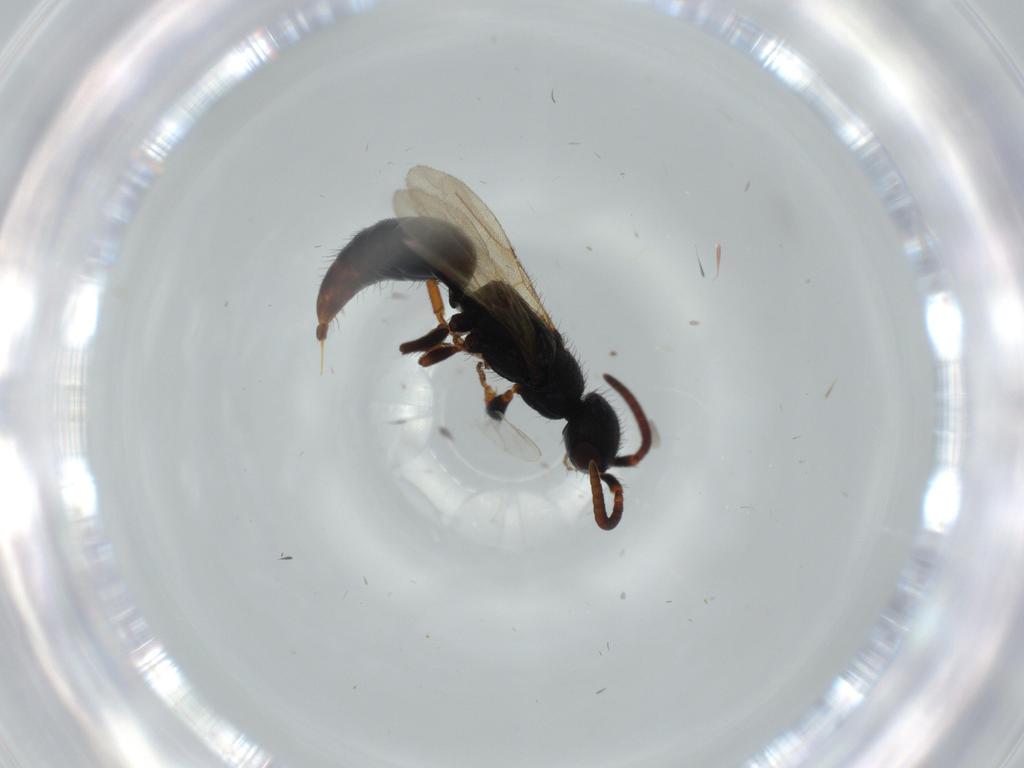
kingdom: Animalia
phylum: Arthropoda
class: Insecta
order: Hymenoptera
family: Bethylidae
